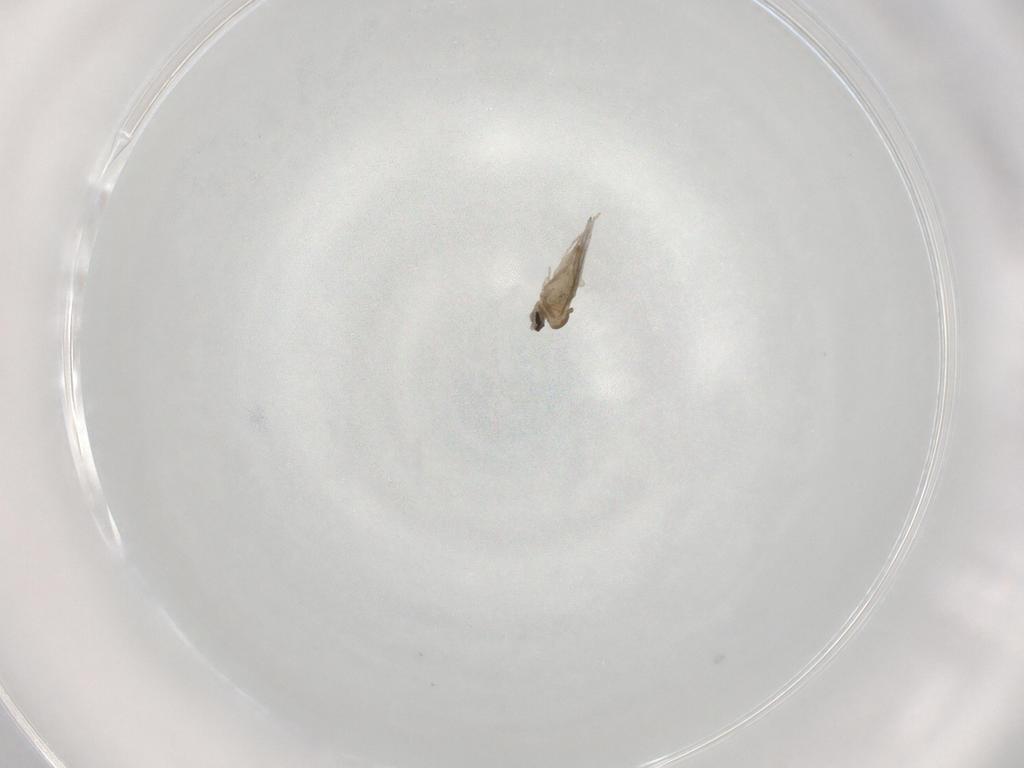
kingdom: Animalia
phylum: Arthropoda
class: Insecta
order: Diptera
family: Cecidomyiidae
